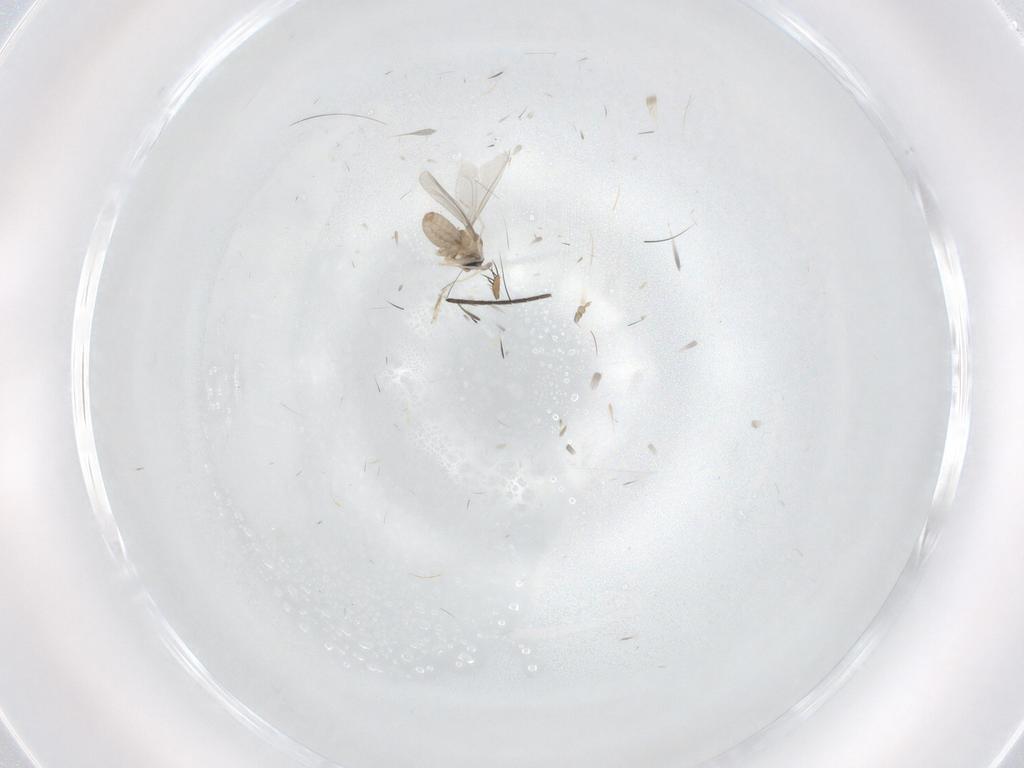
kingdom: Animalia
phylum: Arthropoda
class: Insecta
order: Diptera
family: Cecidomyiidae
